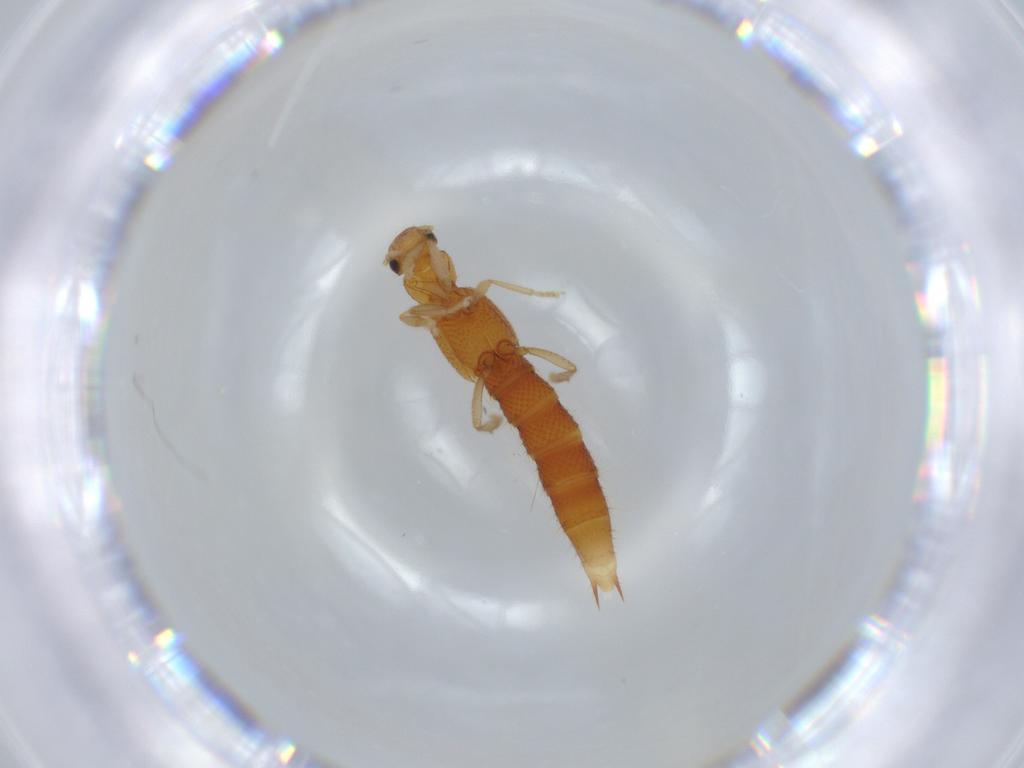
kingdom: Animalia
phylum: Arthropoda
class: Insecta
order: Coleoptera
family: Staphylinidae
